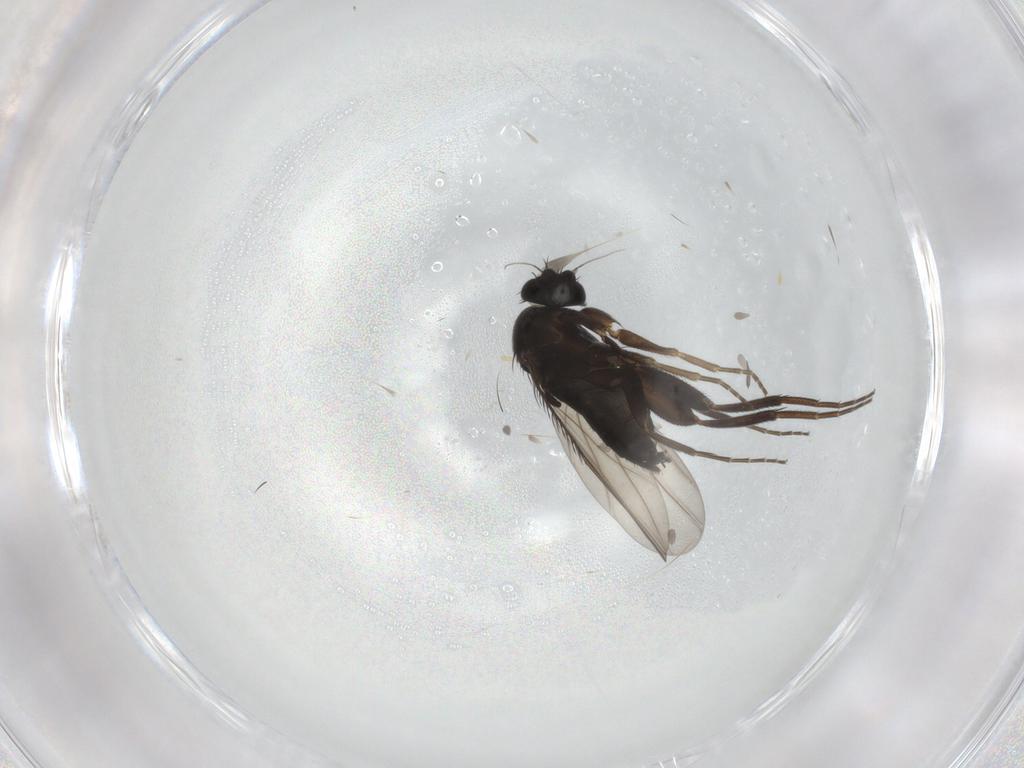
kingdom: Animalia
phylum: Arthropoda
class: Insecta
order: Diptera
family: Phoridae
